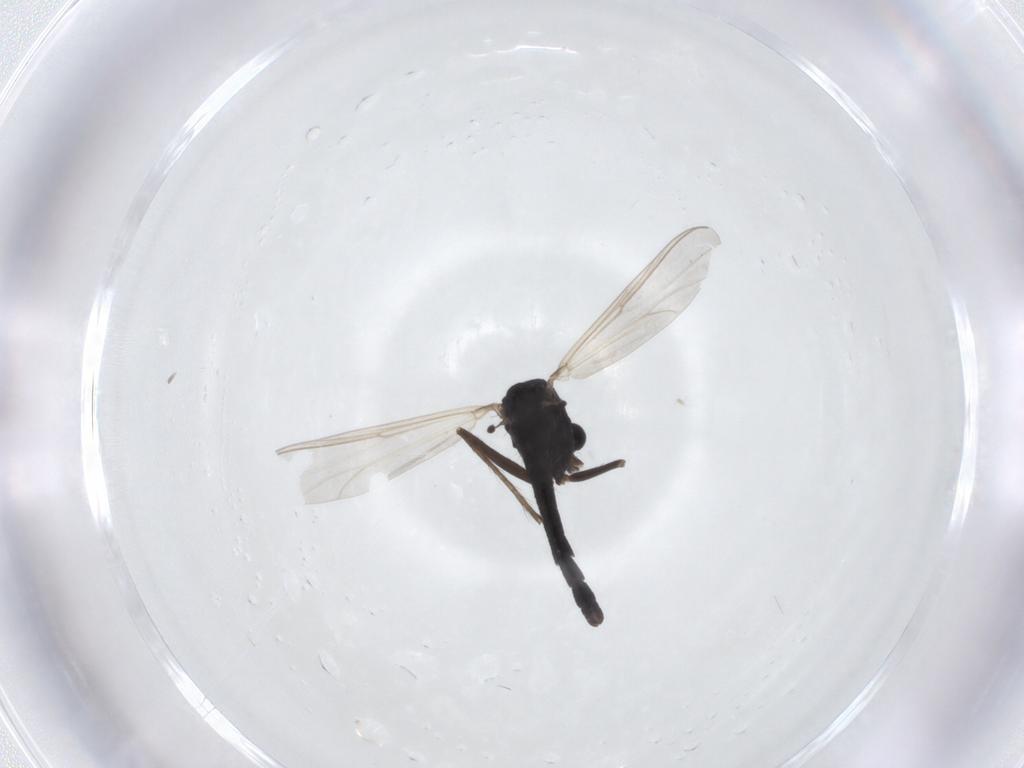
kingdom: Animalia
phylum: Arthropoda
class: Insecta
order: Diptera
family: Chironomidae
